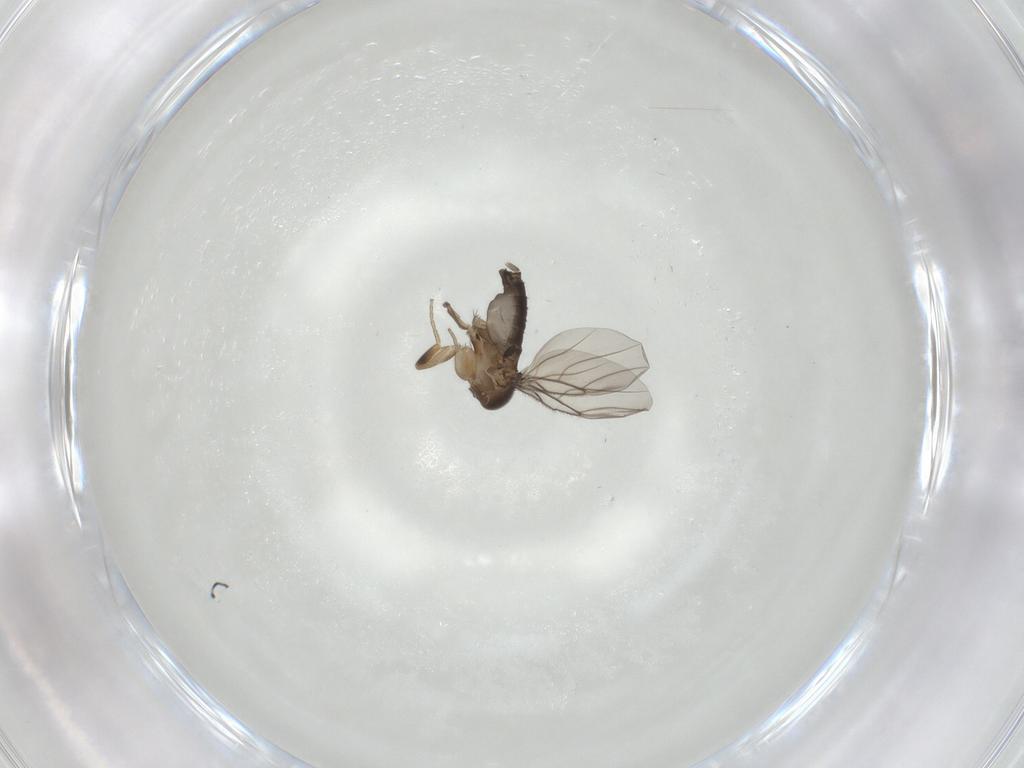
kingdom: Animalia
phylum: Arthropoda
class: Insecta
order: Diptera
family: Phoridae
